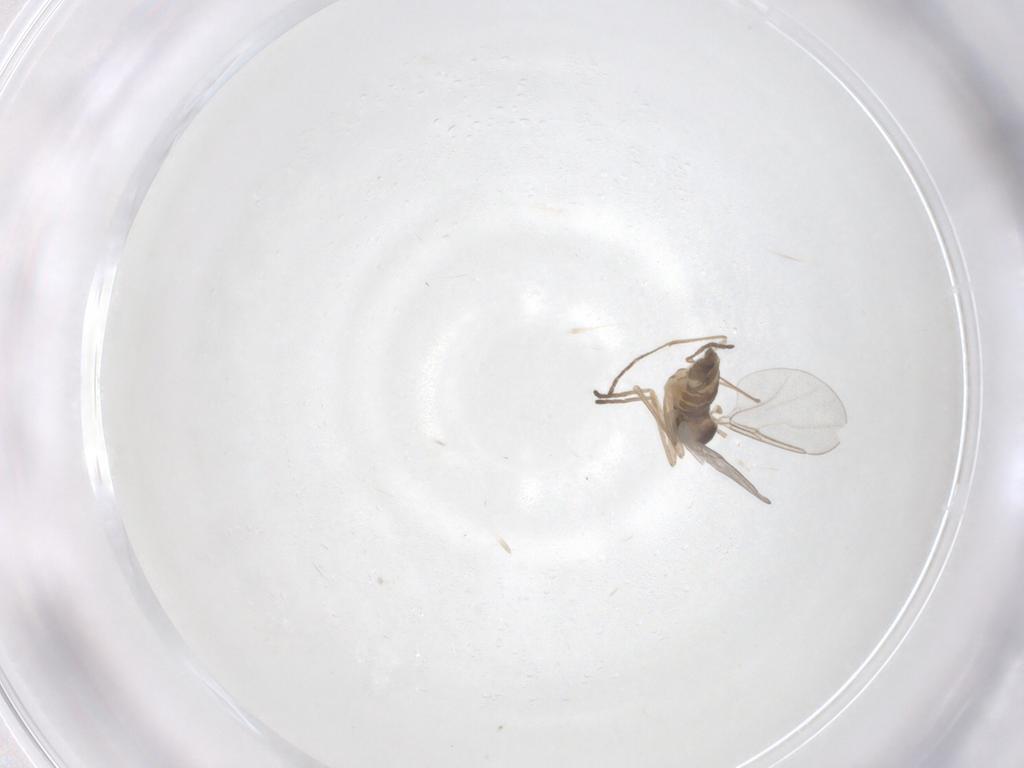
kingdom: Animalia
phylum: Arthropoda
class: Insecta
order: Diptera
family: Cecidomyiidae
